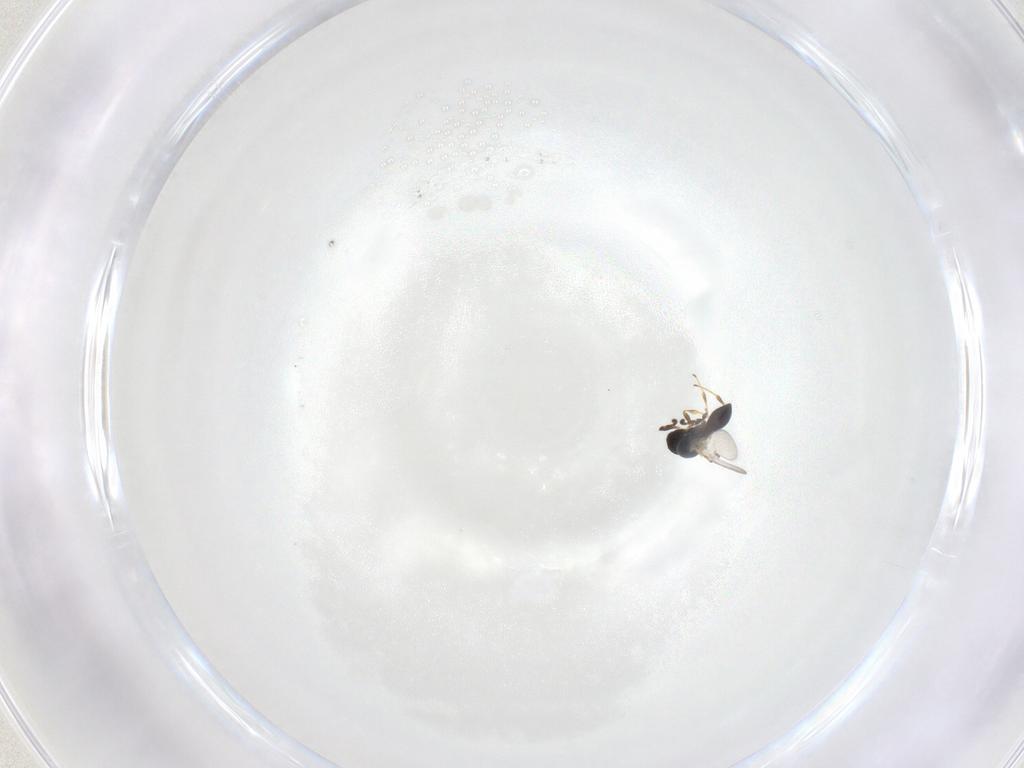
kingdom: Animalia
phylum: Arthropoda
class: Insecta
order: Hymenoptera
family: Platygastridae
